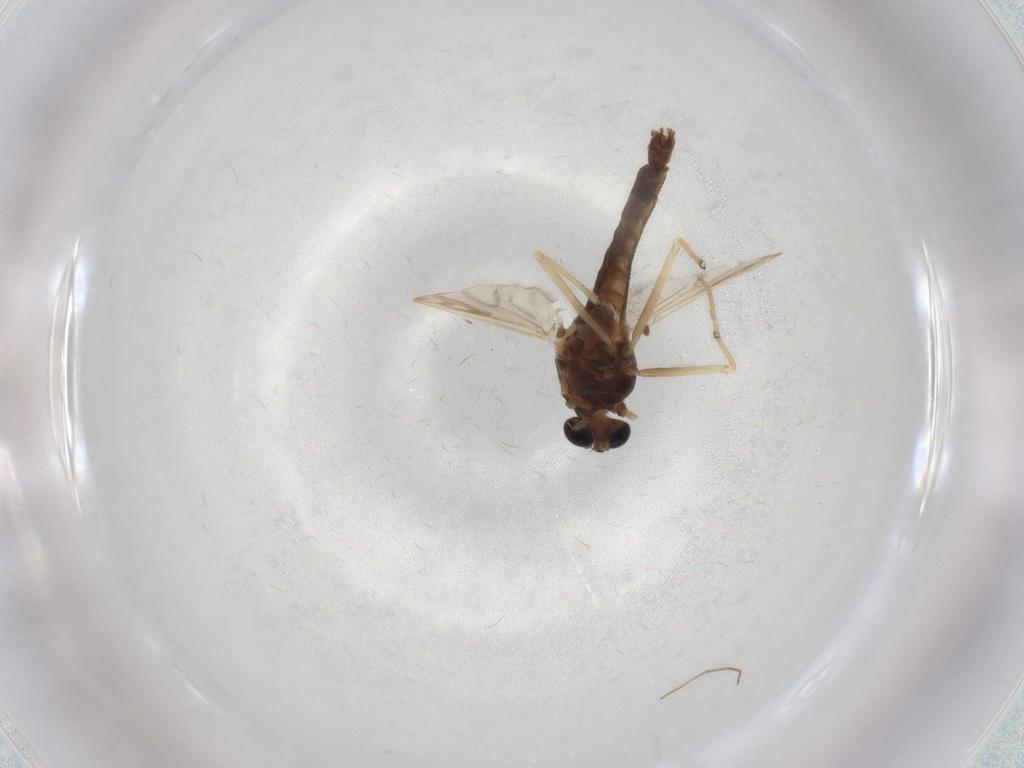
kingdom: Animalia
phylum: Arthropoda
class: Insecta
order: Diptera
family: Chironomidae
